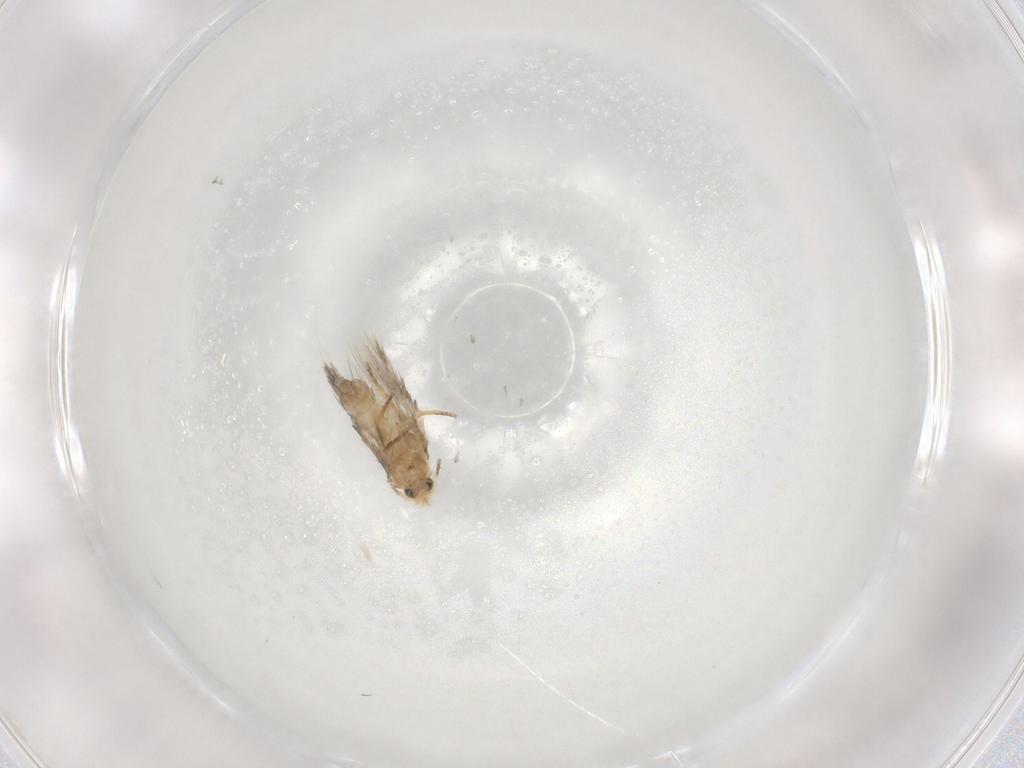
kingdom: Animalia
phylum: Arthropoda
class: Insecta
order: Lepidoptera
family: Nepticulidae
